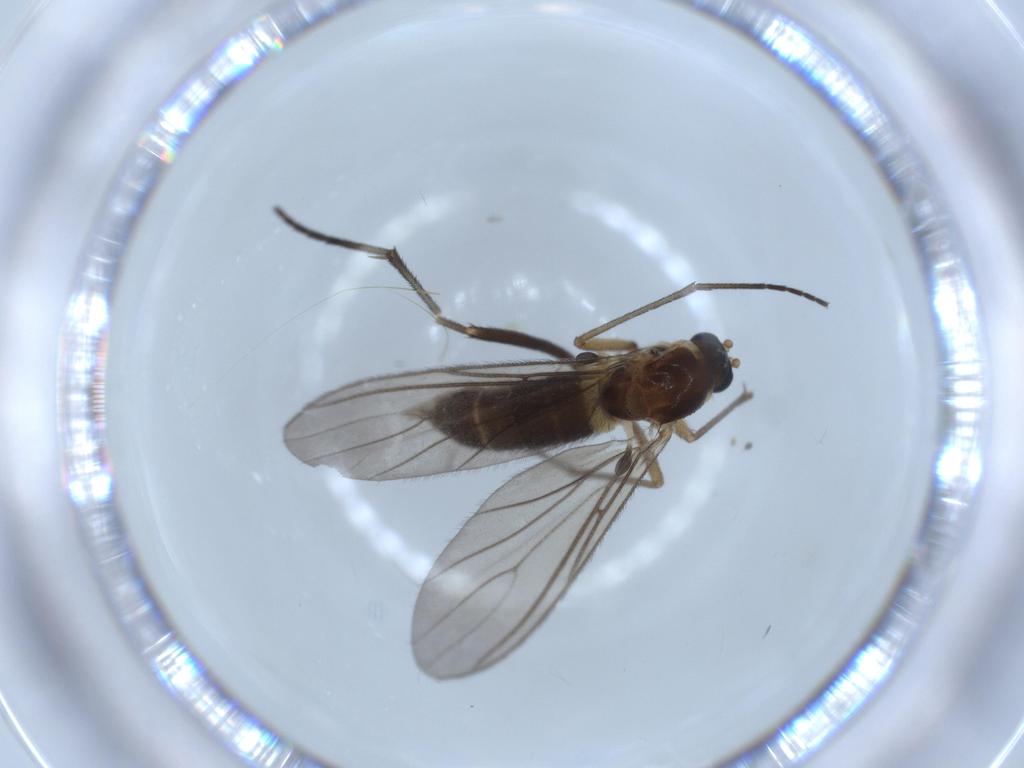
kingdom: Animalia
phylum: Arthropoda
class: Insecta
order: Diptera
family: Sciaridae
